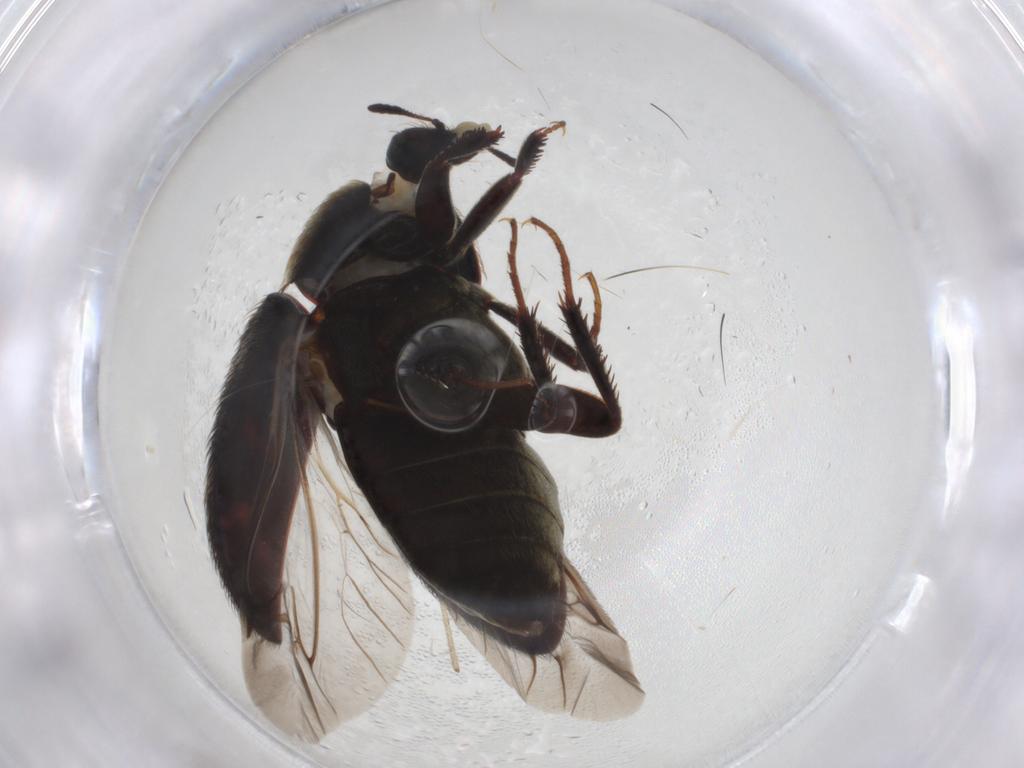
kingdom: Animalia
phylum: Arthropoda
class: Insecta
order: Coleoptera
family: Dermestidae
